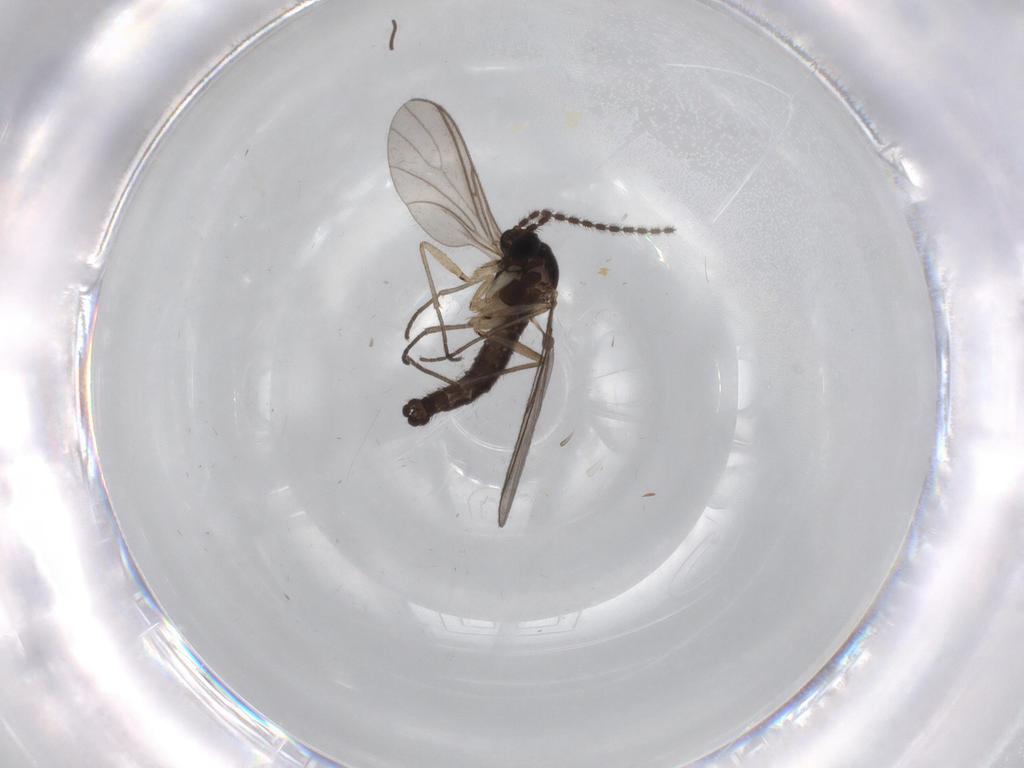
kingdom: Animalia
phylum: Arthropoda
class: Insecta
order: Diptera
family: Sciaridae
